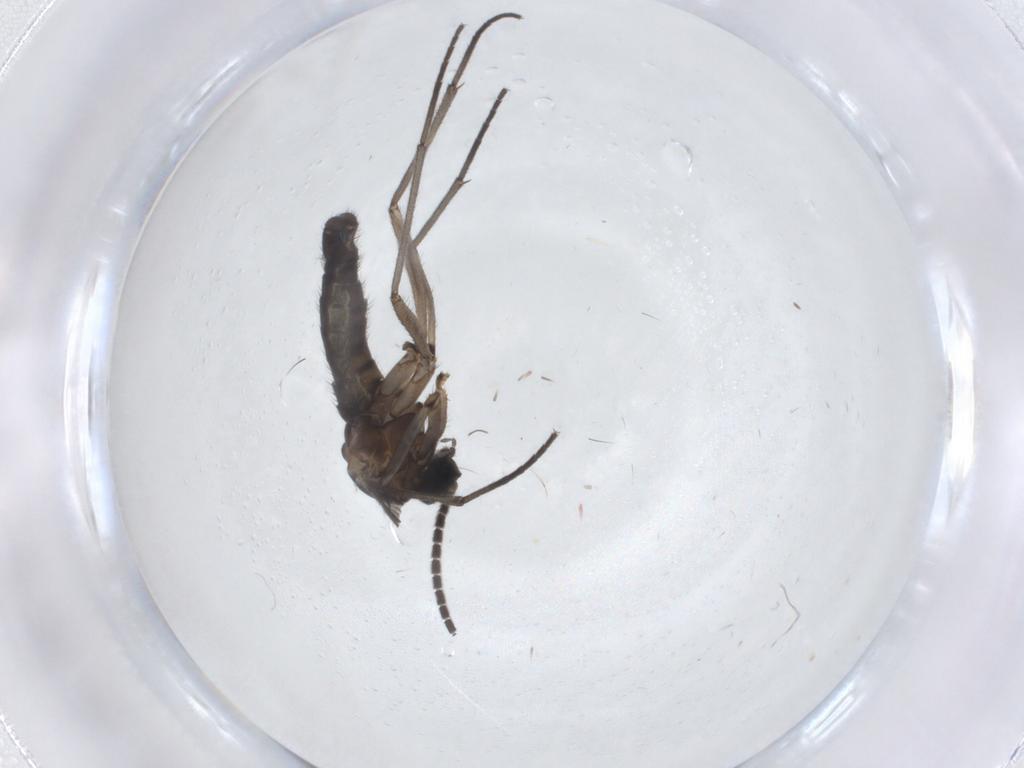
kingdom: Animalia
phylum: Arthropoda
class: Insecta
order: Diptera
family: Sciaridae
